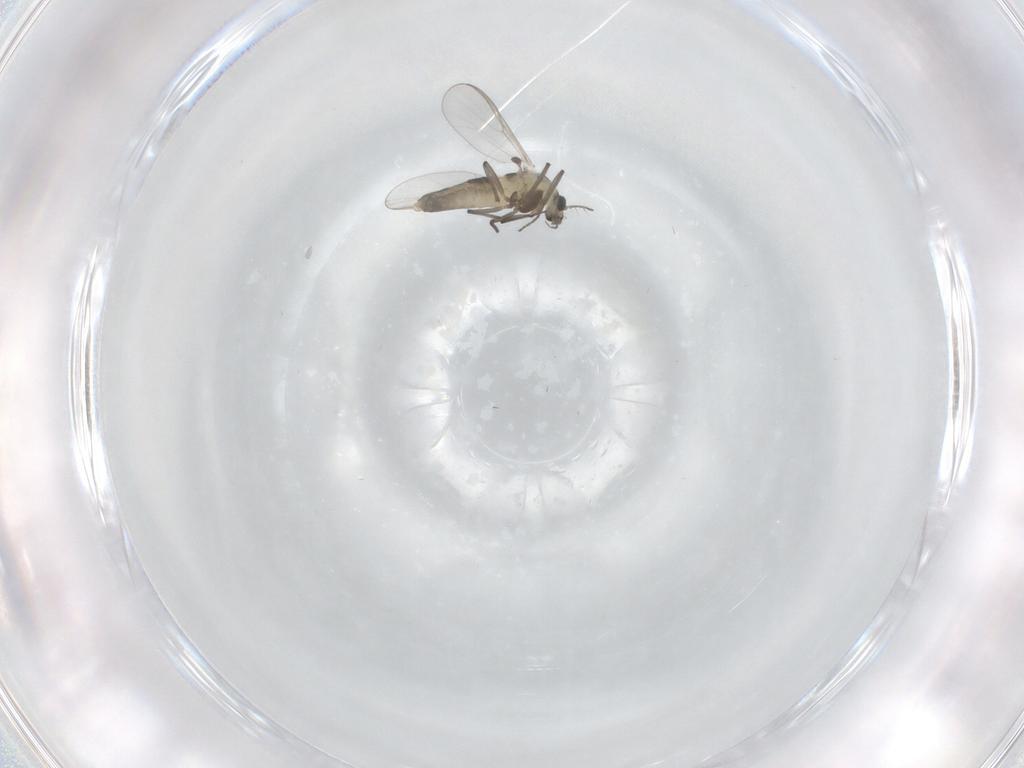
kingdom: Animalia
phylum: Arthropoda
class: Insecta
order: Diptera
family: Chironomidae
